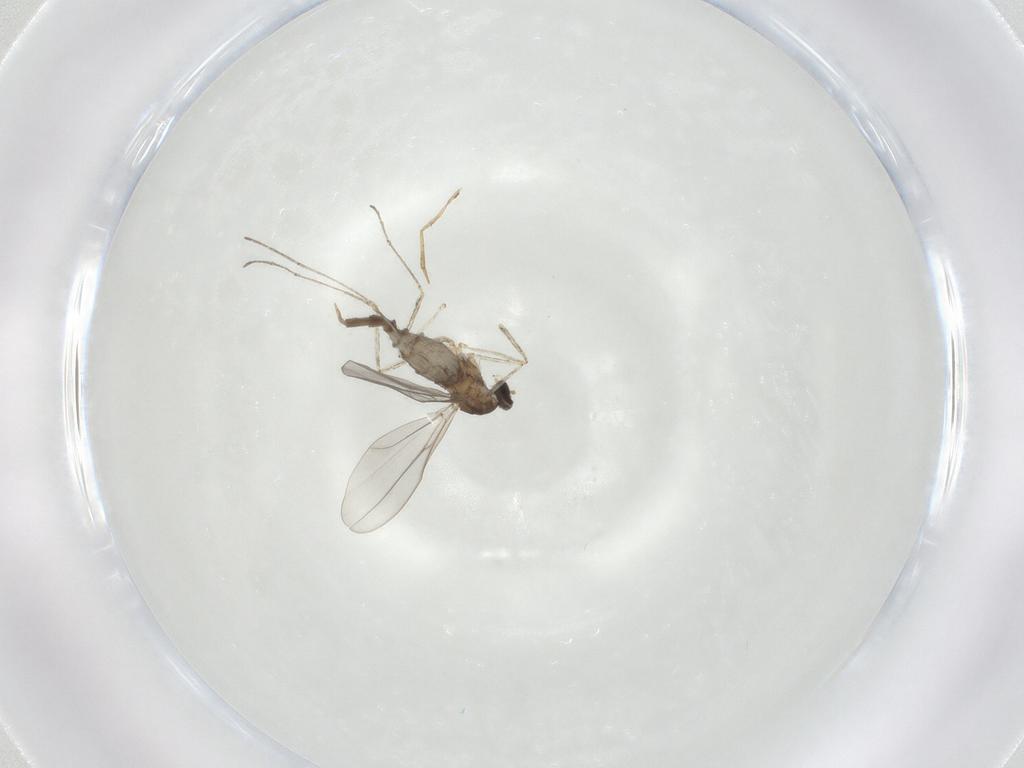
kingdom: Animalia
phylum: Arthropoda
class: Insecta
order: Diptera
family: Cecidomyiidae
